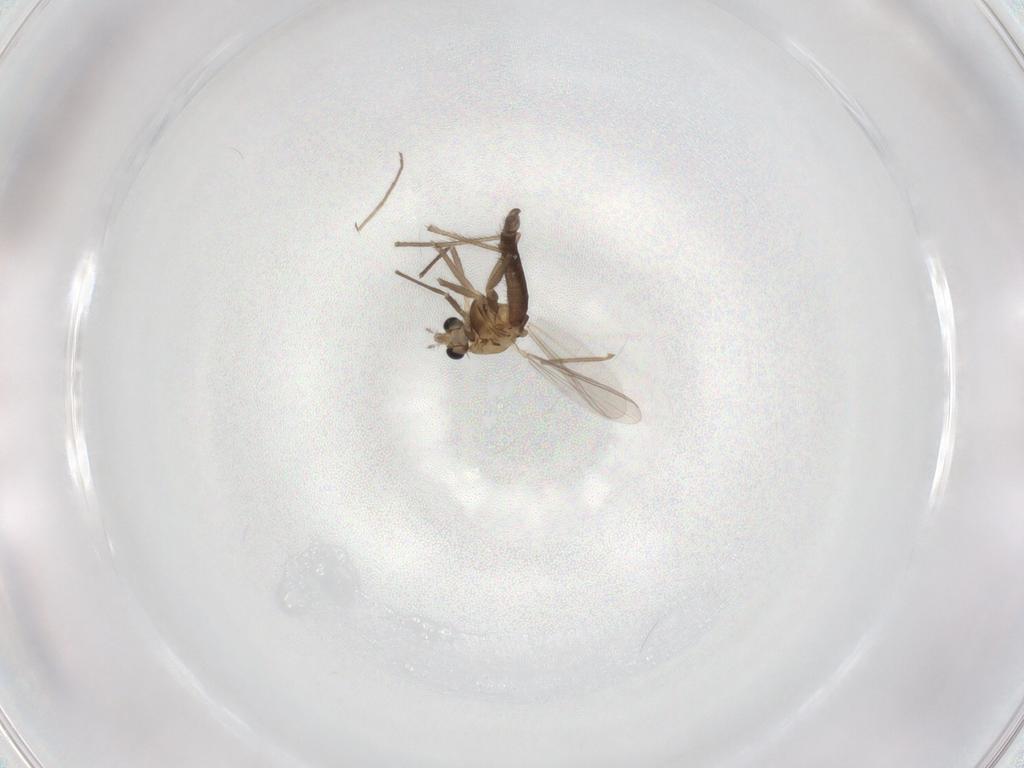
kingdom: Animalia
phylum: Arthropoda
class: Insecta
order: Diptera
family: Chironomidae
